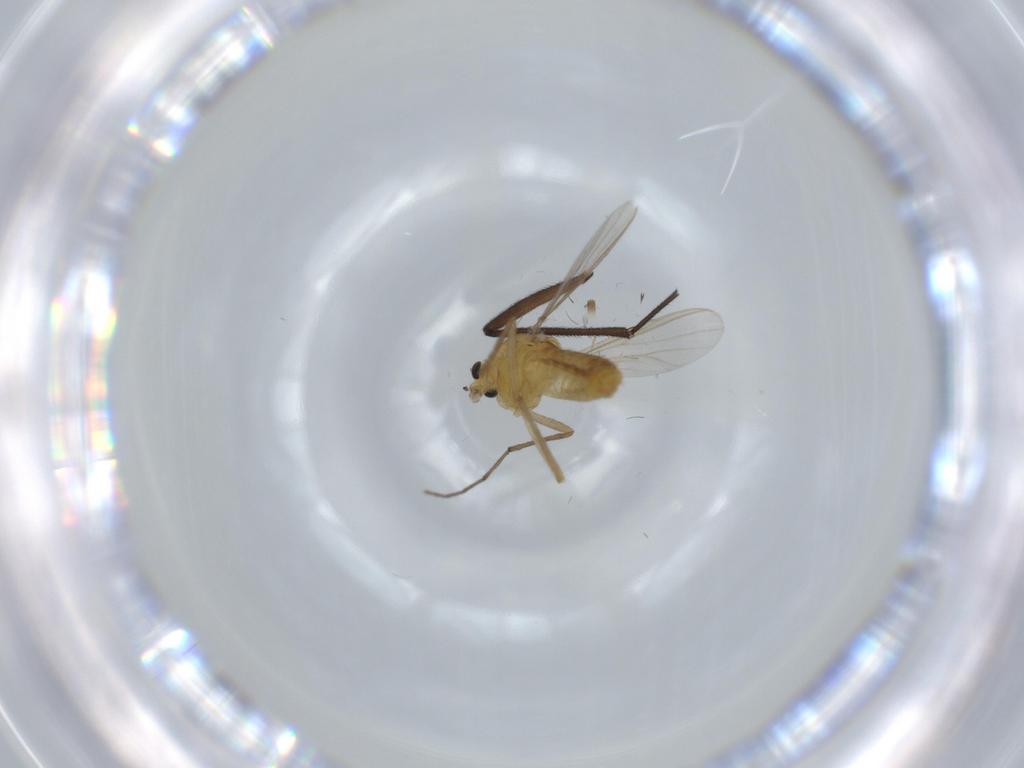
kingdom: Animalia
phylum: Arthropoda
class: Insecta
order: Diptera
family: Chironomidae
